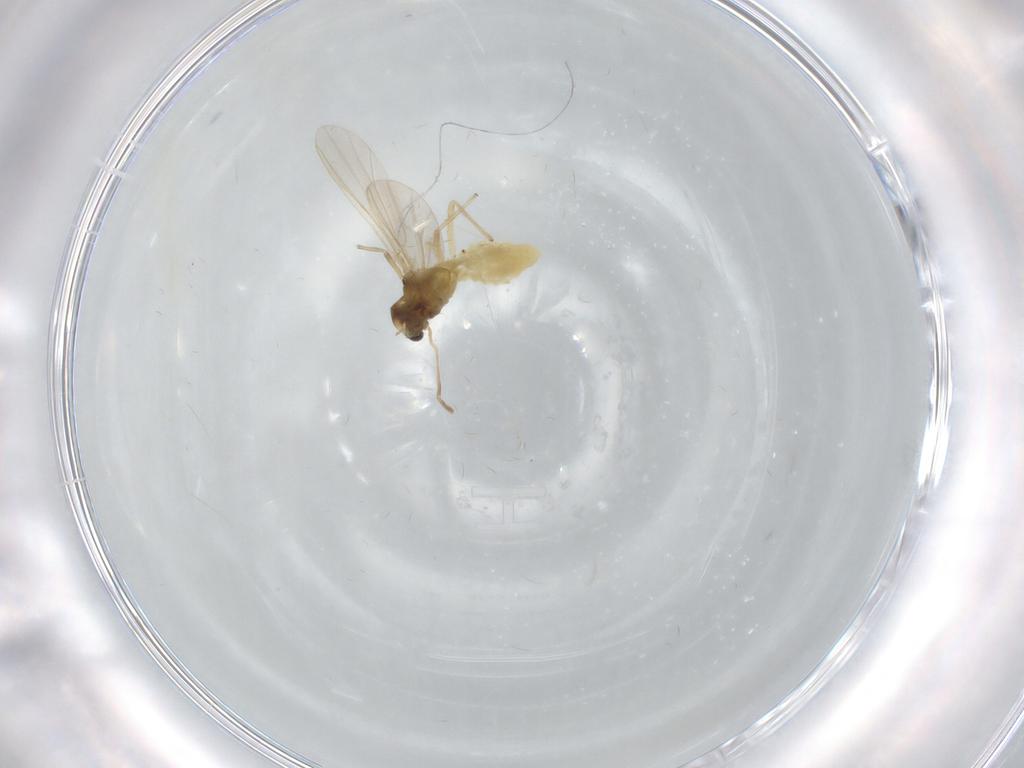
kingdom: Animalia
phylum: Arthropoda
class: Insecta
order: Diptera
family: Chironomidae
